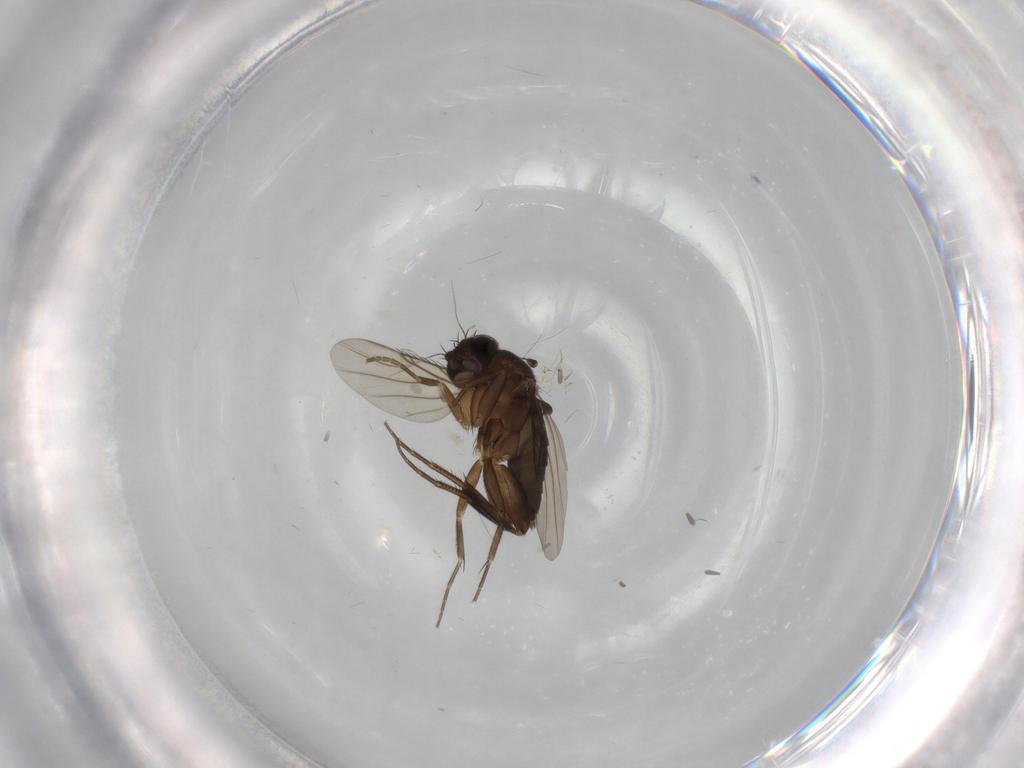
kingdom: Animalia
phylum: Arthropoda
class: Insecta
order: Diptera
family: Phoridae
